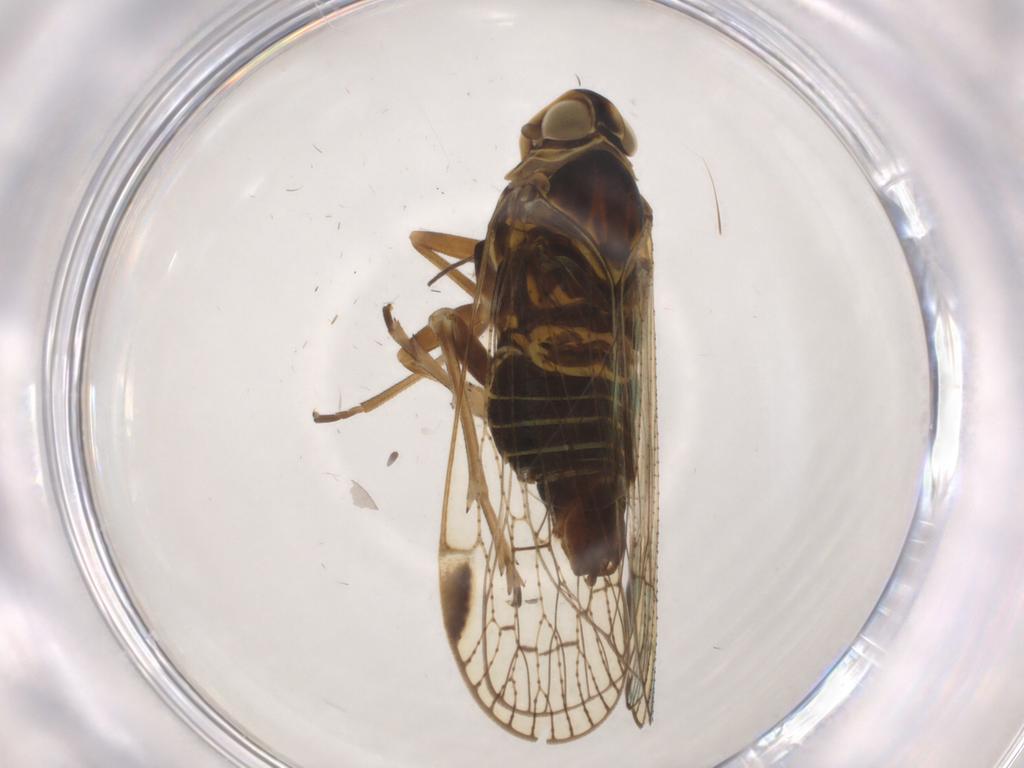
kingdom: Animalia
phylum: Arthropoda
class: Insecta
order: Hemiptera
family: Cixiidae
